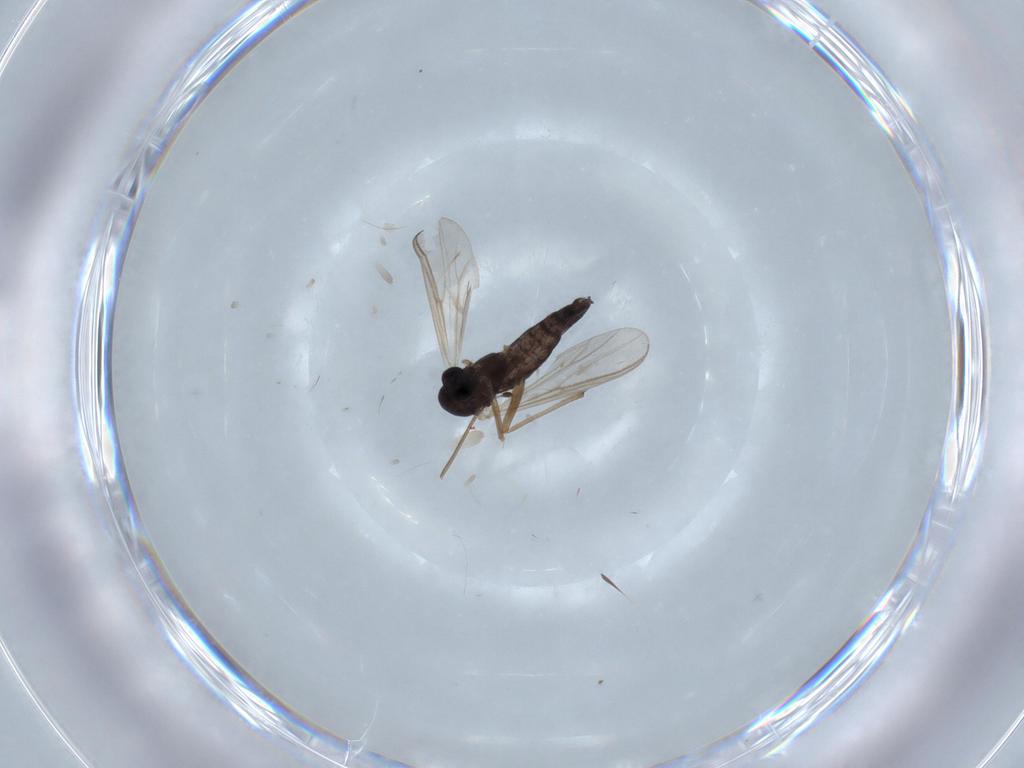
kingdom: Animalia
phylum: Arthropoda
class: Insecta
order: Diptera
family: Chironomidae
